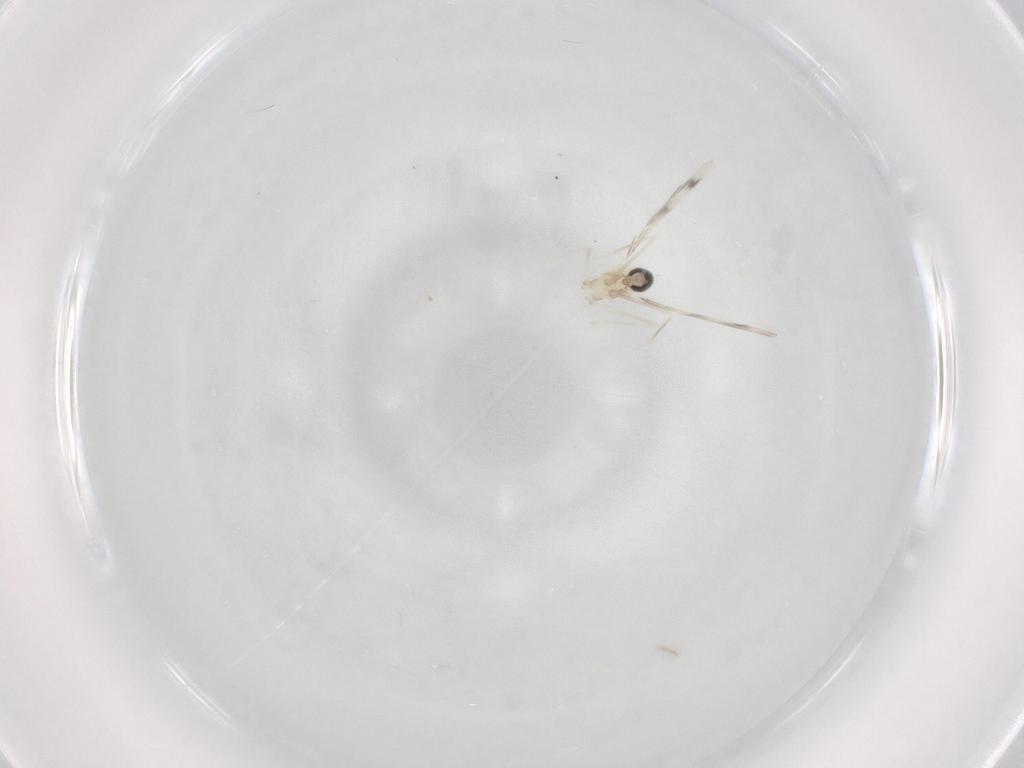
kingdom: Animalia
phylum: Arthropoda
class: Insecta
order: Diptera
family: Cecidomyiidae
